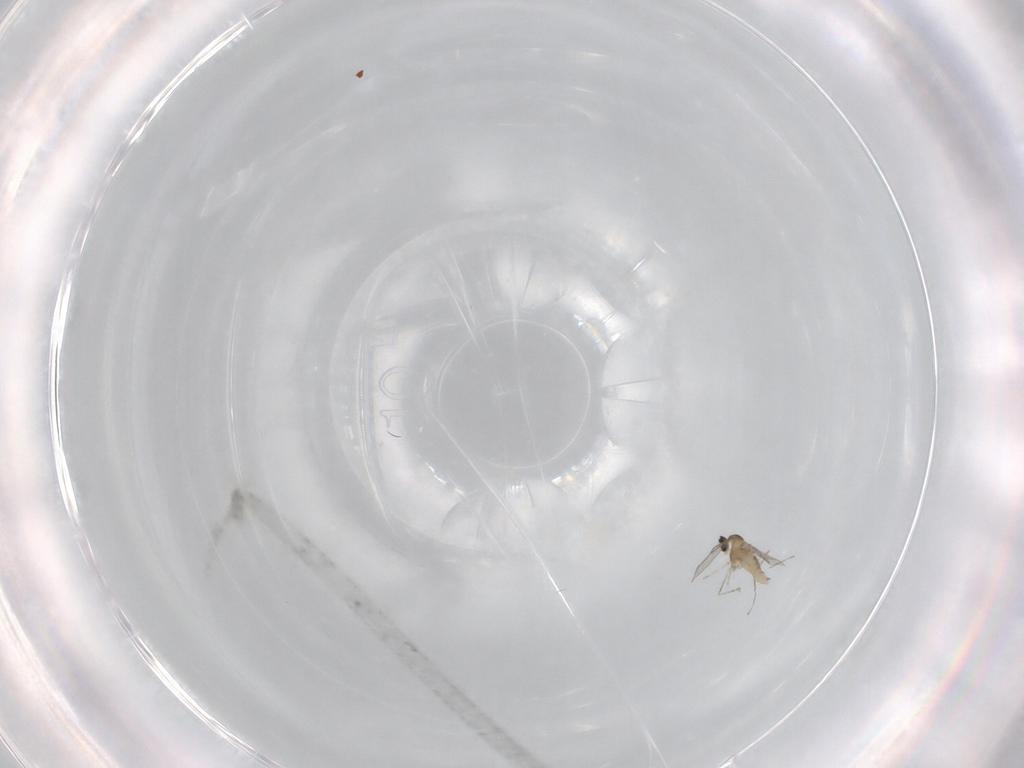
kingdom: Animalia
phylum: Arthropoda
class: Insecta
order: Diptera
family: Cecidomyiidae
